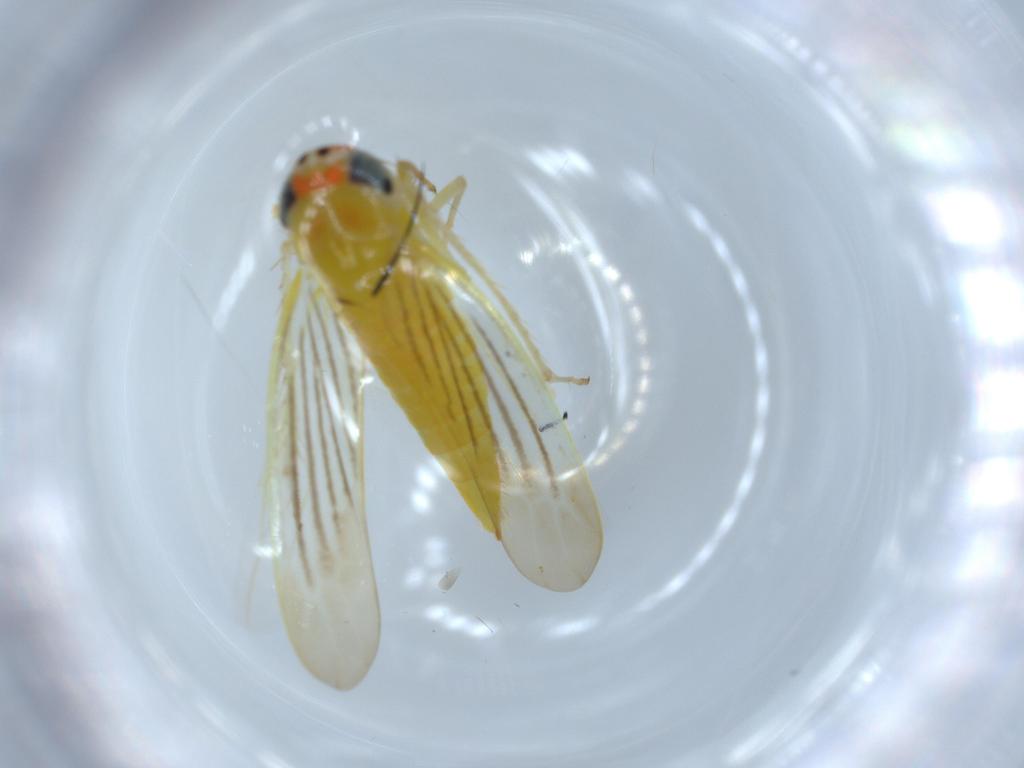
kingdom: Animalia
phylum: Arthropoda
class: Insecta
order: Hemiptera
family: Cicadellidae
